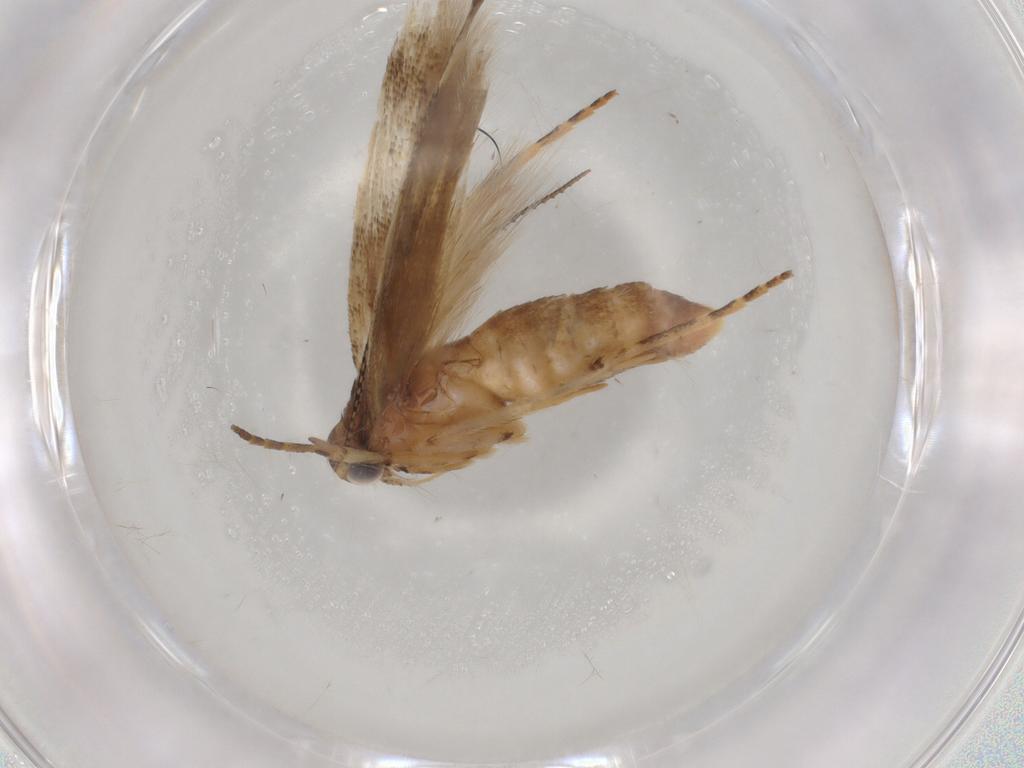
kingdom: Animalia
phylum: Arthropoda
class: Insecta
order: Lepidoptera
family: Gelechiidae
